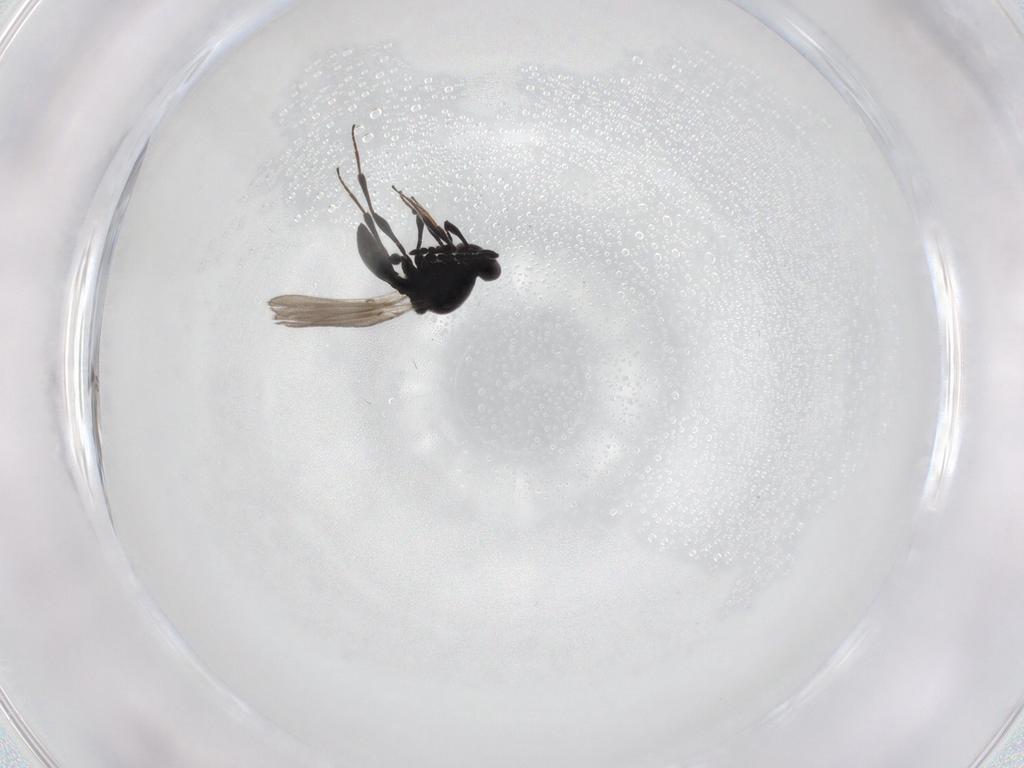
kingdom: Animalia
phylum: Arthropoda
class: Insecta
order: Hymenoptera
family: Platygastridae
